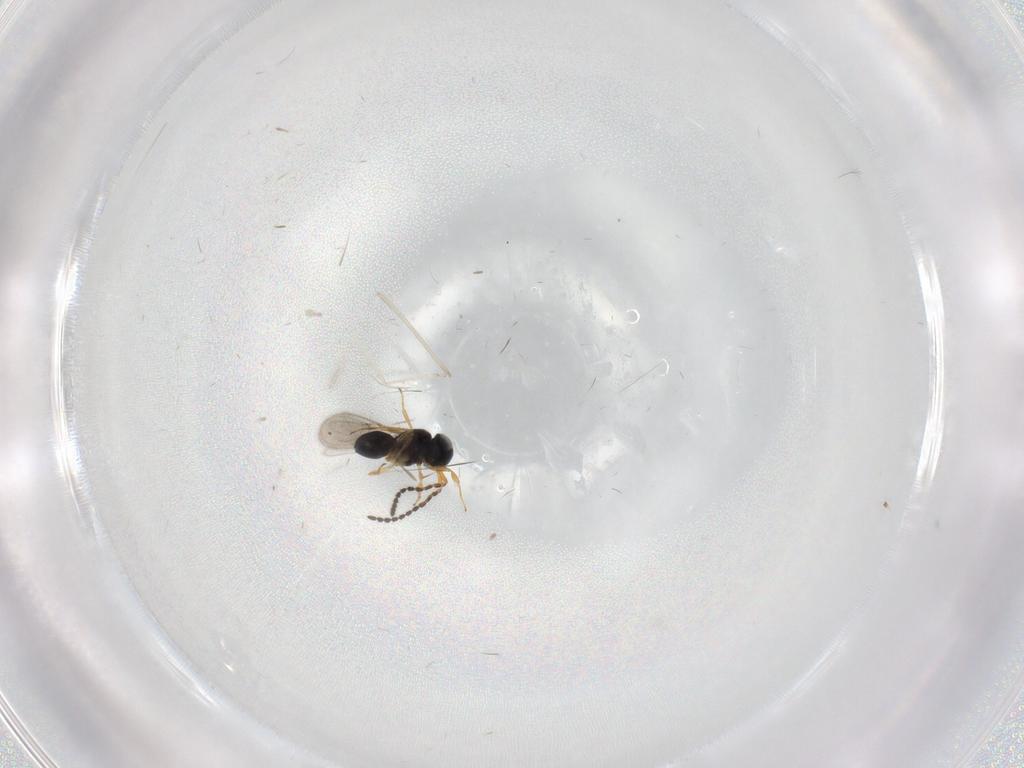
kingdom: Animalia
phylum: Arthropoda
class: Insecta
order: Hymenoptera
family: Scelionidae
